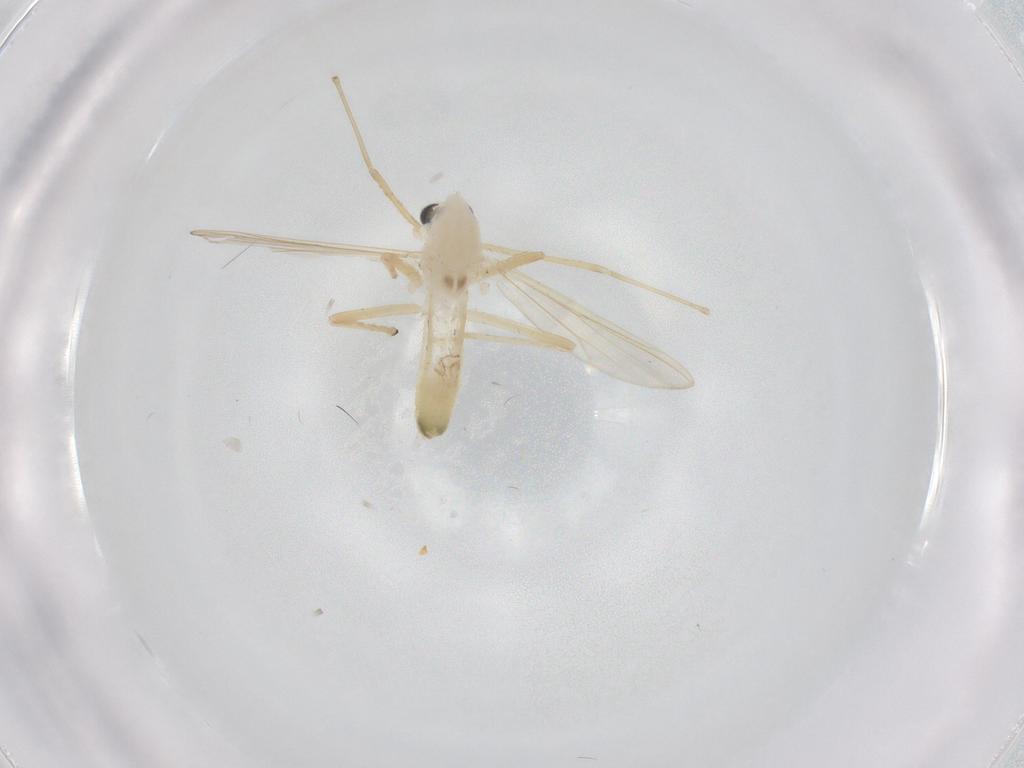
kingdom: Animalia
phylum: Arthropoda
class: Insecta
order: Diptera
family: Chironomidae
